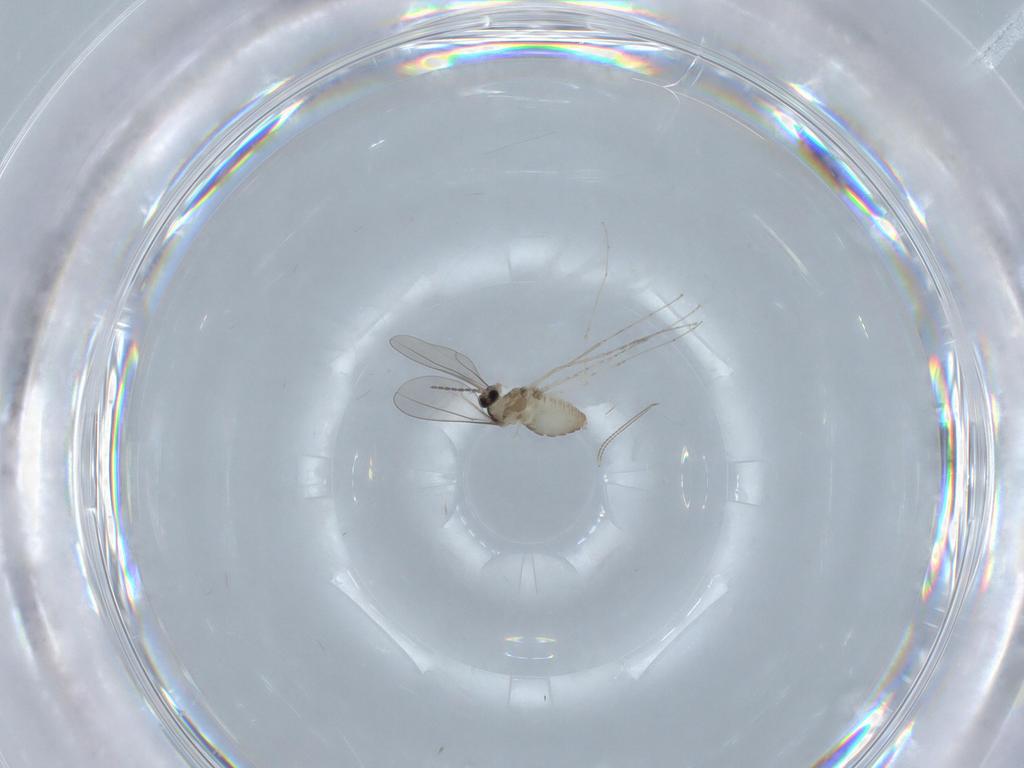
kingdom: Animalia
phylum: Arthropoda
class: Insecta
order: Diptera
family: Cecidomyiidae
